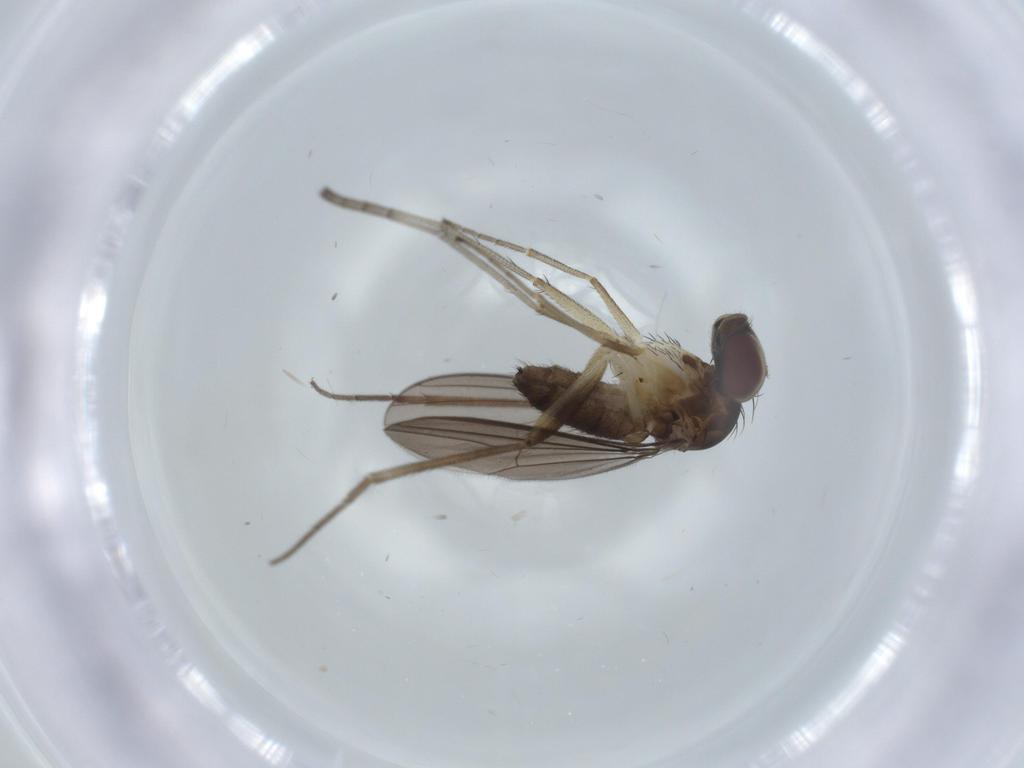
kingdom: Animalia
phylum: Arthropoda
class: Insecta
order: Diptera
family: Dolichopodidae
